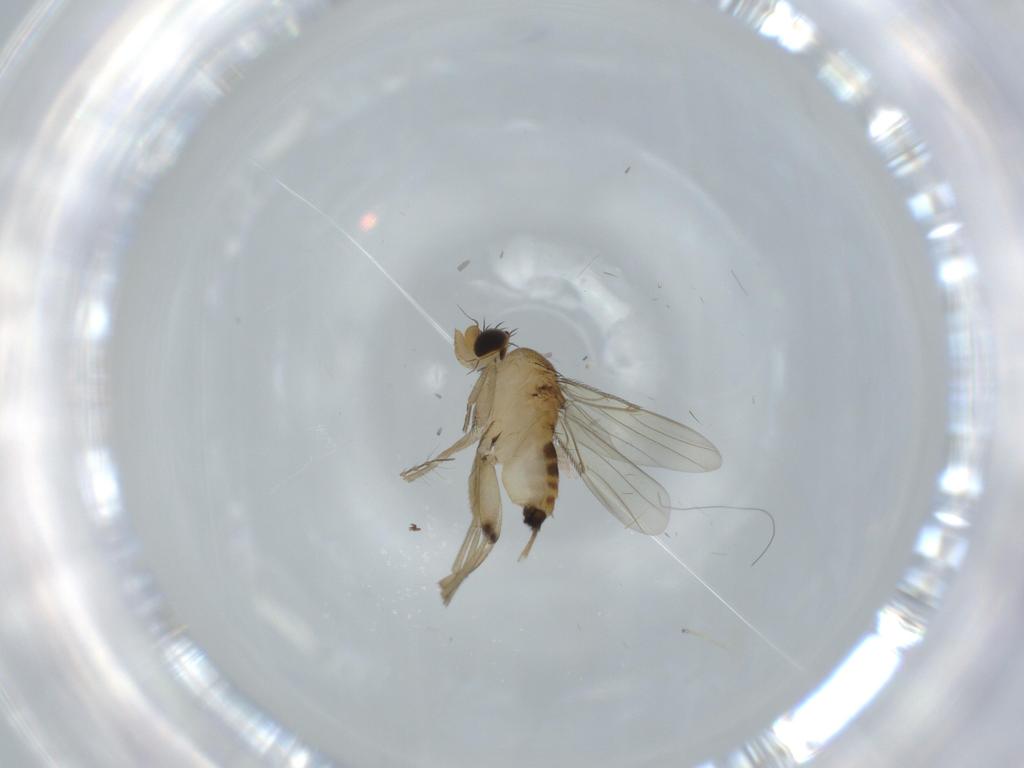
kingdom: Animalia
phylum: Arthropoda
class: Insecta
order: Diptera
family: Phoridae
